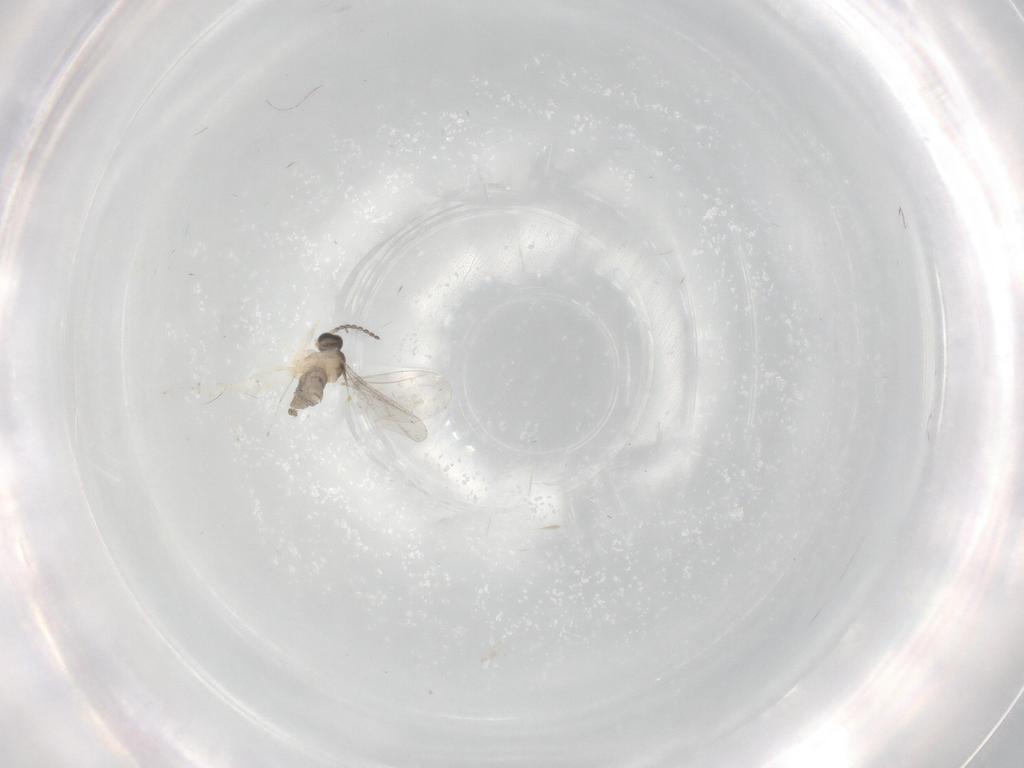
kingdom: Animalia
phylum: Arthropoda
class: Insecta
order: Diptera
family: Cecidomyiidae
